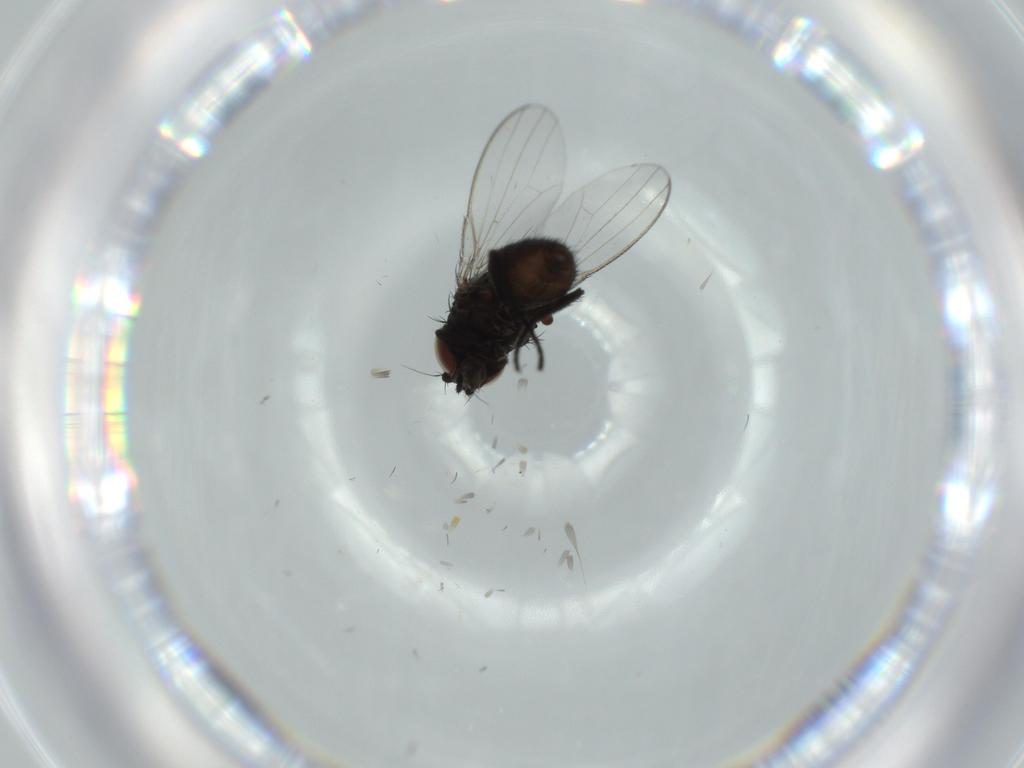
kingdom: Animalia
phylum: Arthropoda
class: Insecta
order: Diptera
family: Milichiidae
